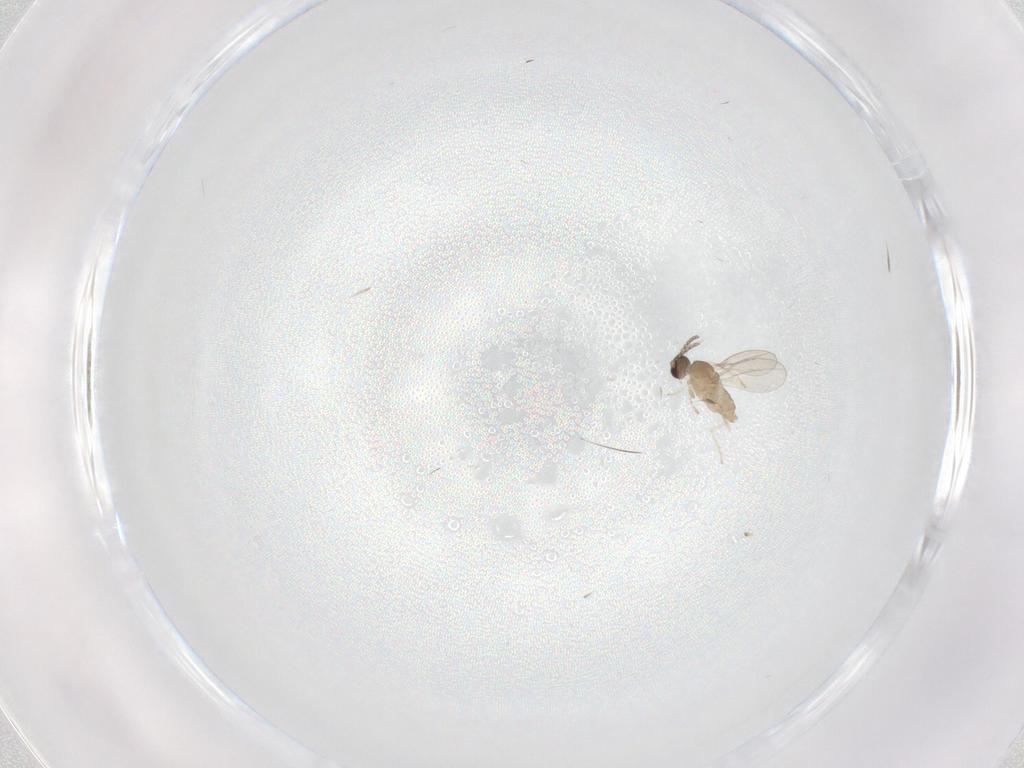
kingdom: Animalia
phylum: Arthropoda
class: Insecta
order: Diptera
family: Ceratopogonidae
